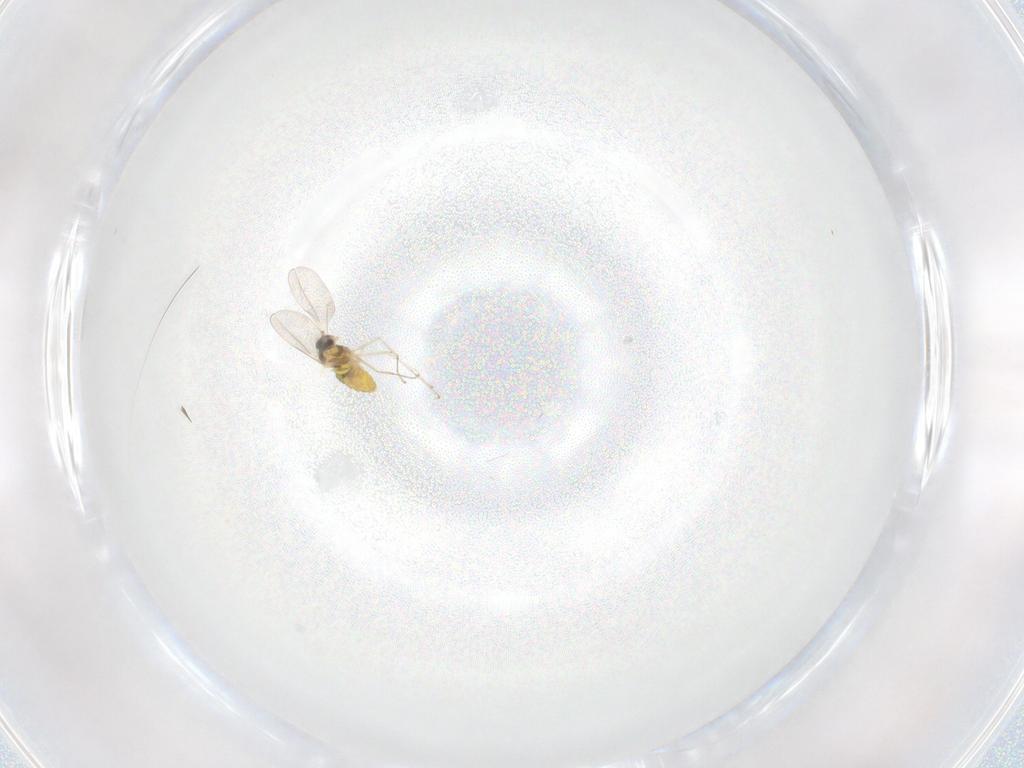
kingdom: Animalia
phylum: Arthropoda
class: Insecta
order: Diptera
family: Cecidomyiidae
